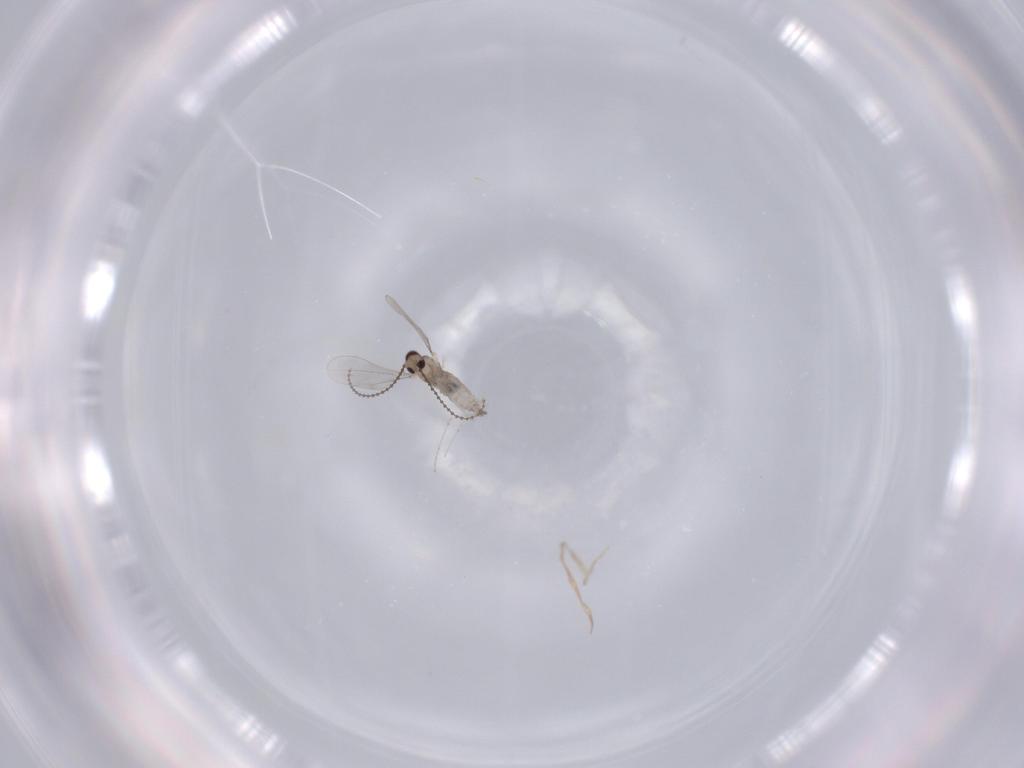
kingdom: Animalia
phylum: Arthropoda
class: Insecta
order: Diptera
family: Cecidomyiidae
